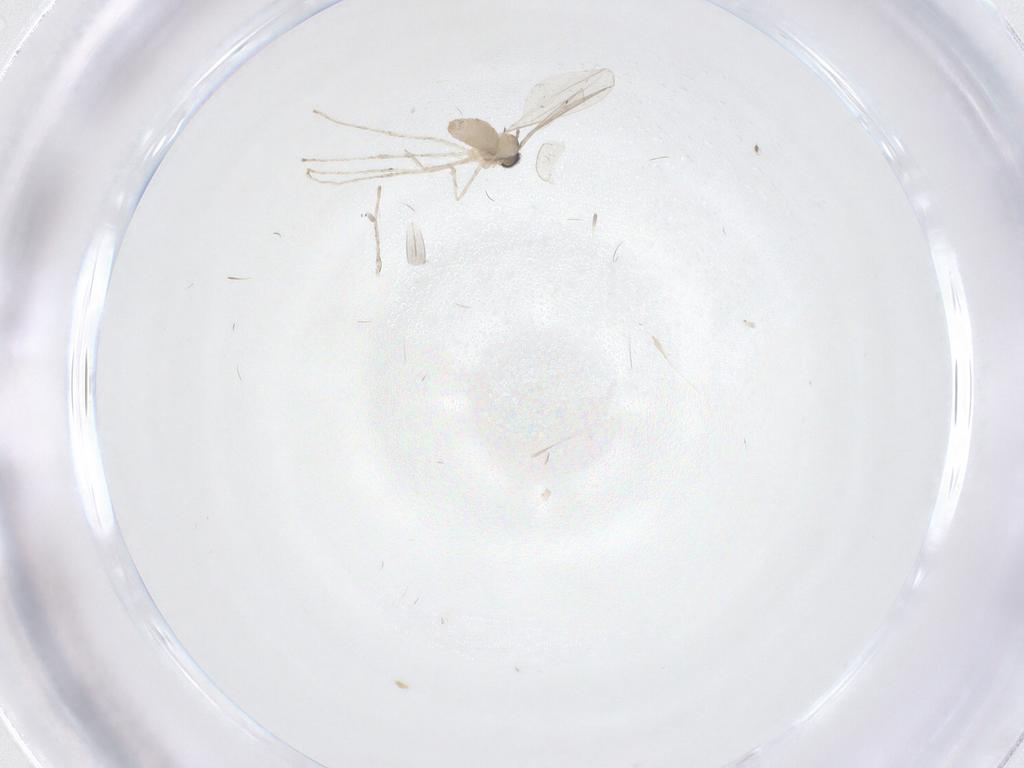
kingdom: Animalia
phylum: Arthropoda
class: Insecta
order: Diptera
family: Cecidomyiidae
